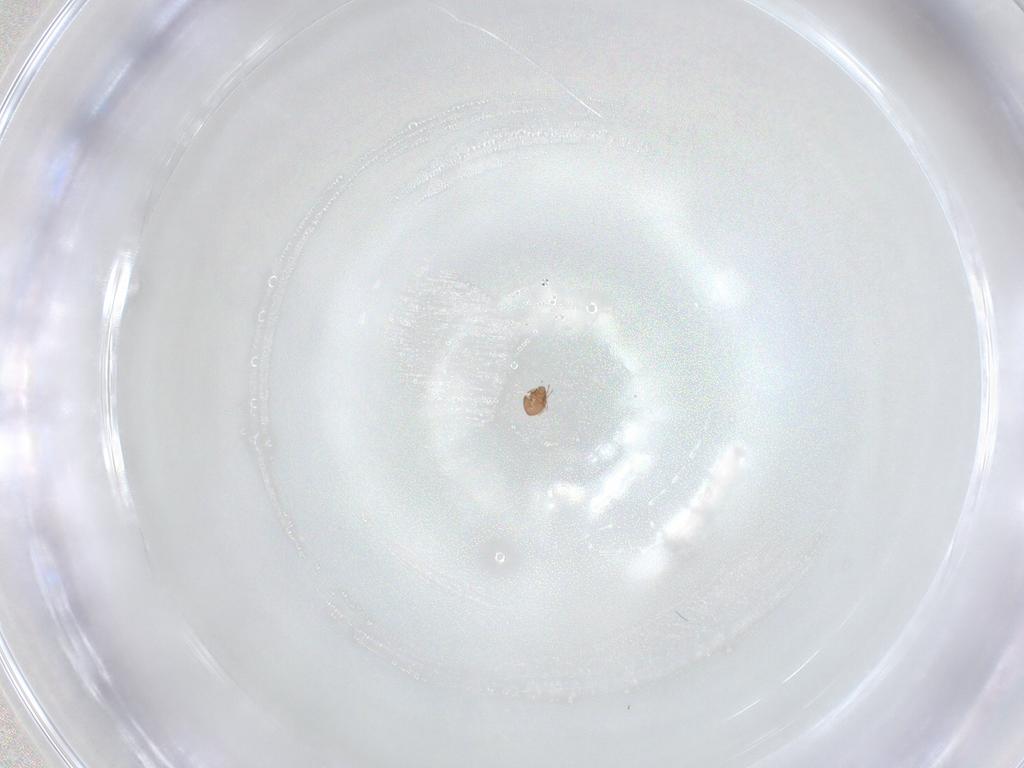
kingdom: Animalia
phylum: Arthropoda
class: Insecta
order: Diptera
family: Phoridae
